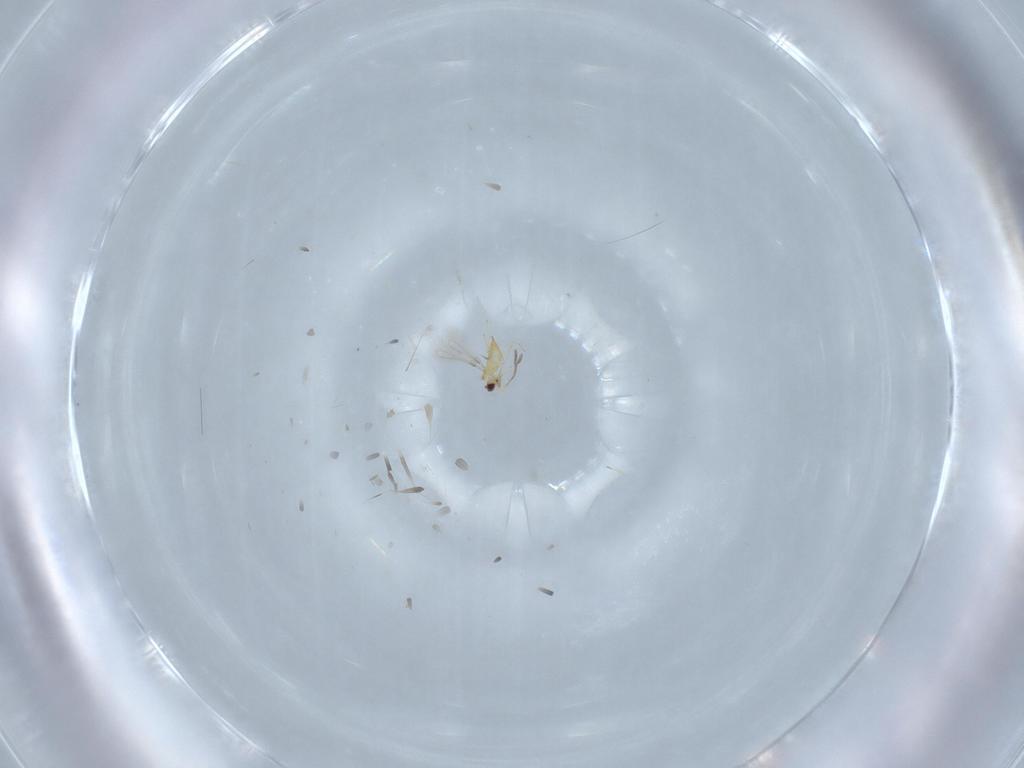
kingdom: Animalia
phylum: Arthropoda
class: Insecta
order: Hymenoptera
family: Mymaridae
